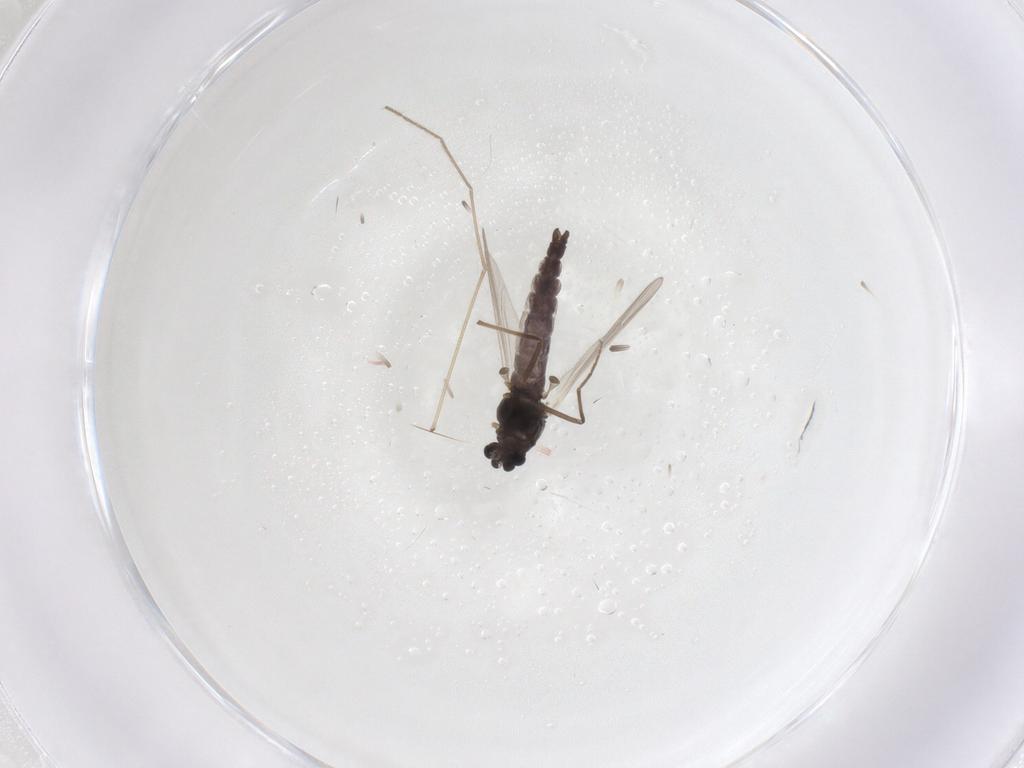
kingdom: Animalia
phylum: Arthropoda
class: Insecta
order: Diptera
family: Chironomidae
